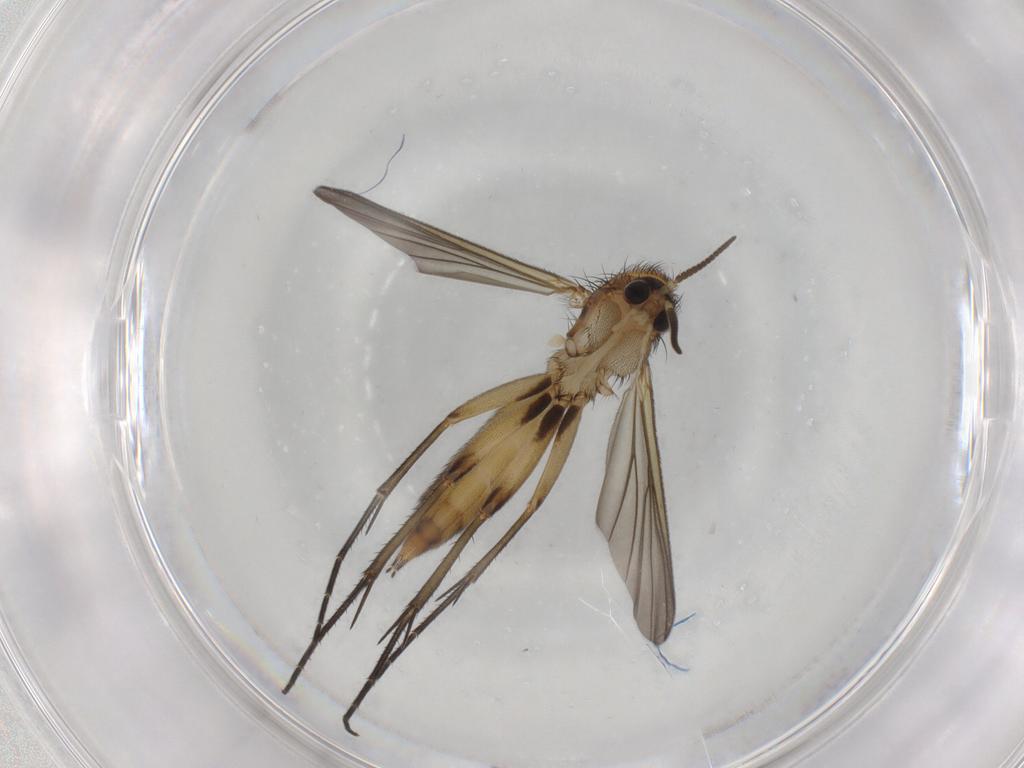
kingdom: Animalia
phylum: Arthropoda
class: Insecta
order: Diptera
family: Mycetophilidae
